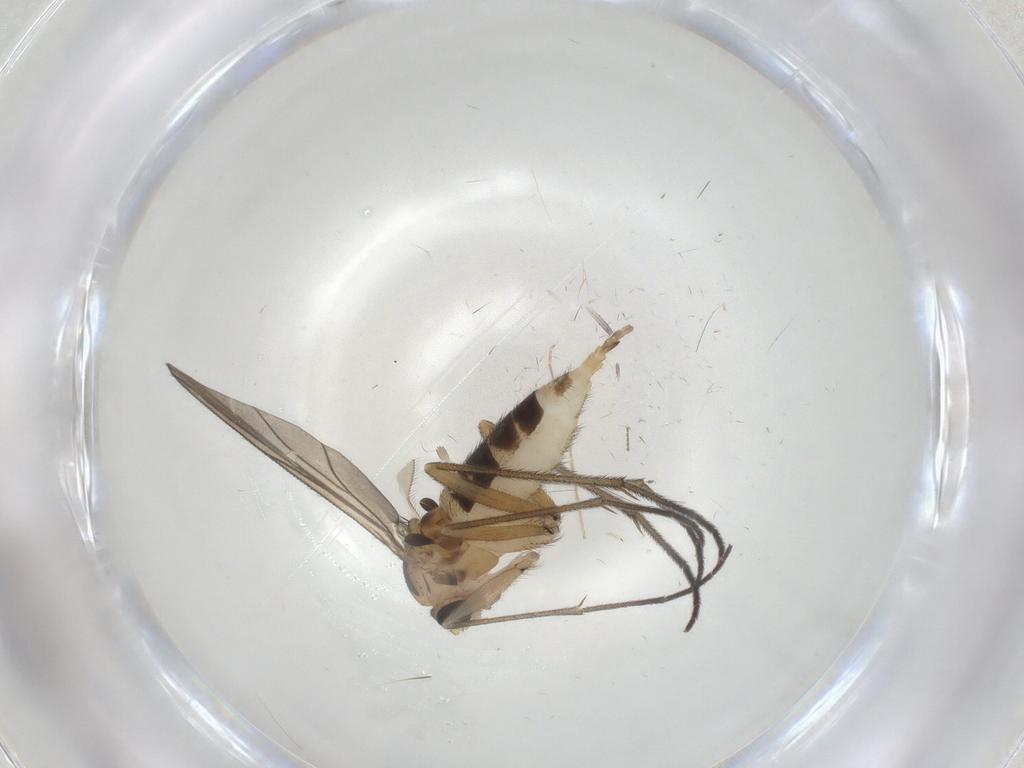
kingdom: Animalia
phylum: Arthropoda
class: Insecta
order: Diptera
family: Sciaridae
